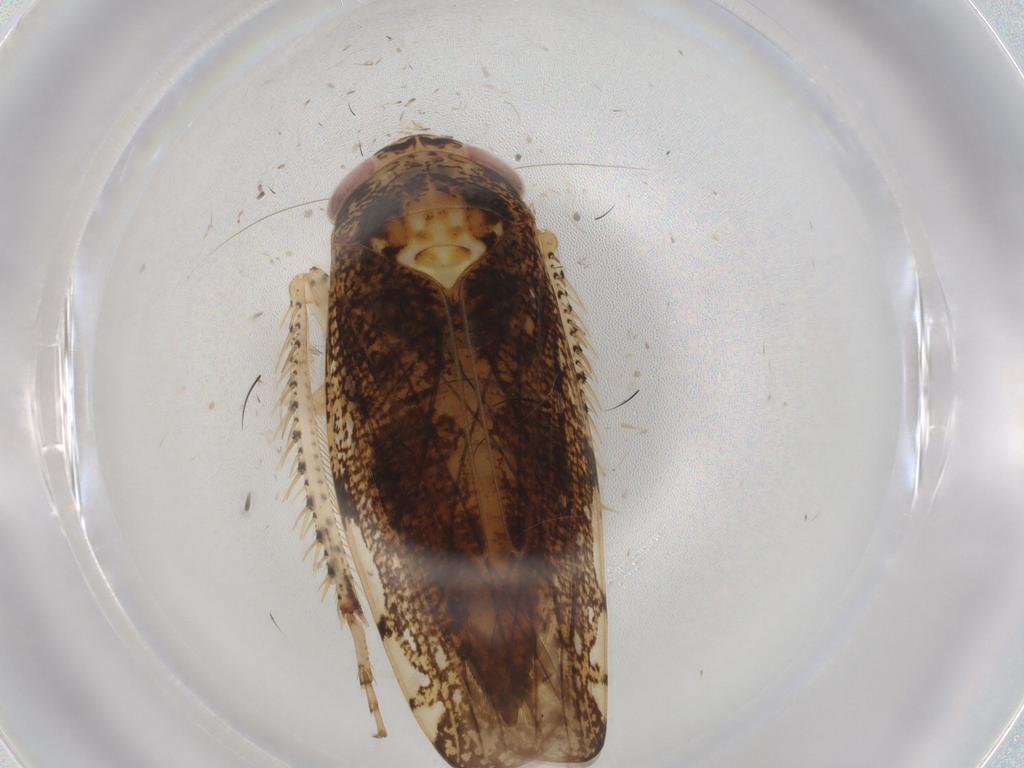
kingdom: Animalia
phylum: Arthropoda
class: Insecta
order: Hemiptera
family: Cicadellidae
